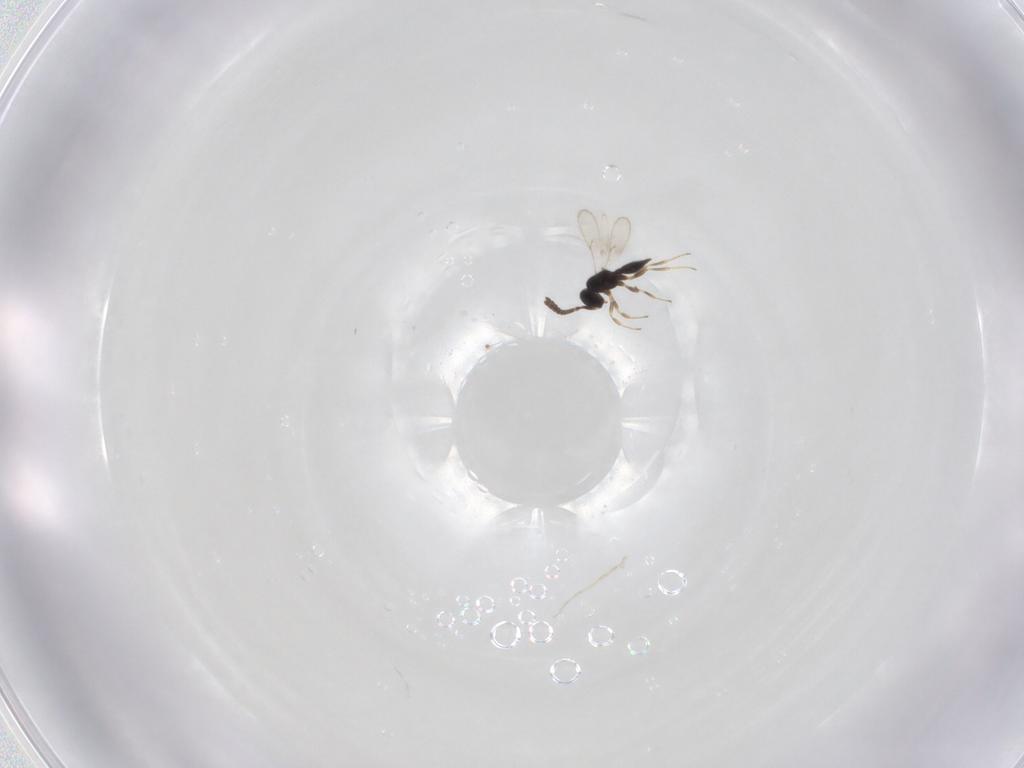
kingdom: Animalia
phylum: Arthropoda
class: Insecta
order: Hymenoptera
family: Scelionidae
